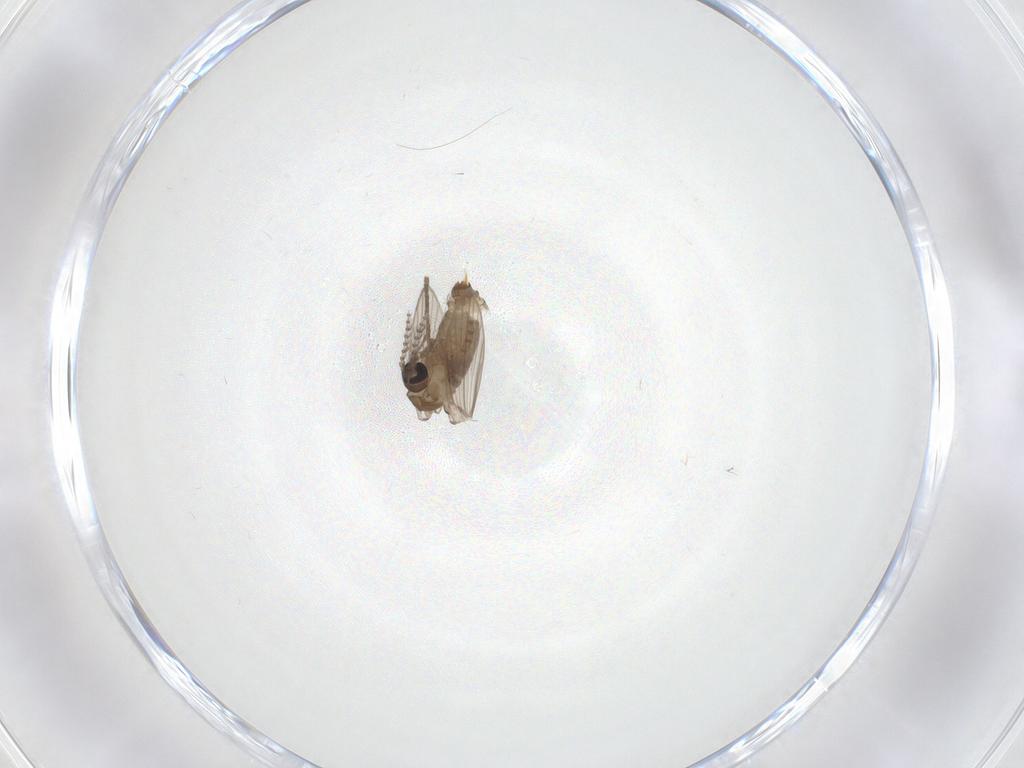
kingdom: Animalia
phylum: Arthropoda
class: Insecta
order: Diptera
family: Psychodidae
